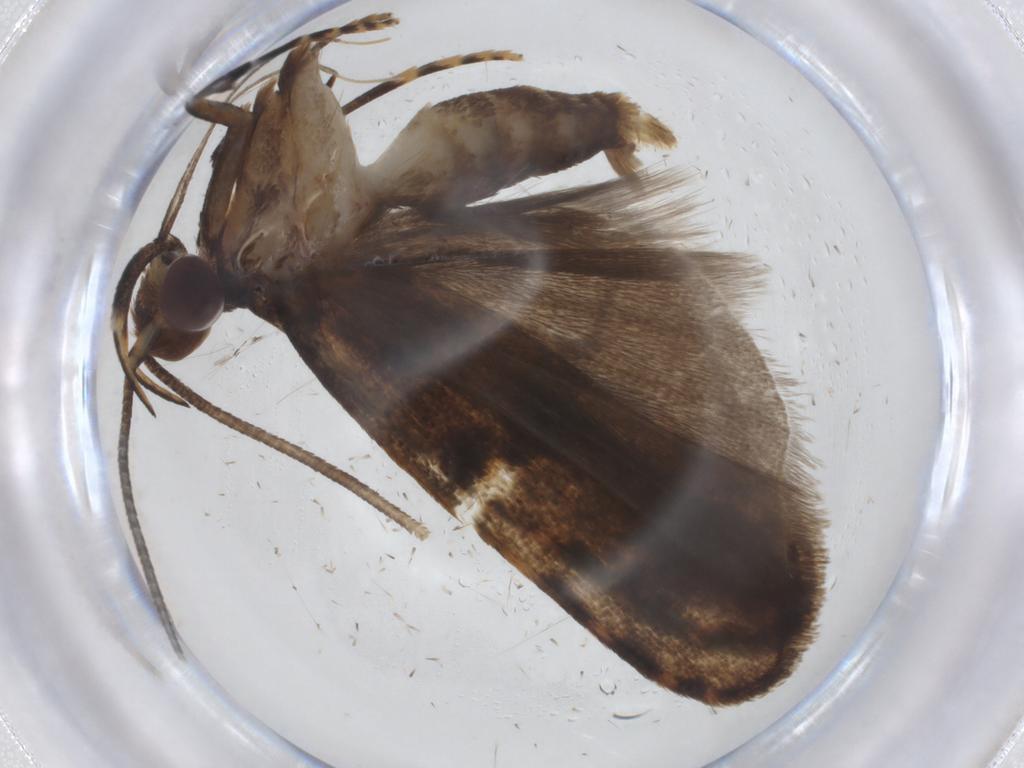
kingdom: Animalia
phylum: Arthropoda
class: Insecta
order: Lepidoptera
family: Autostichidae
